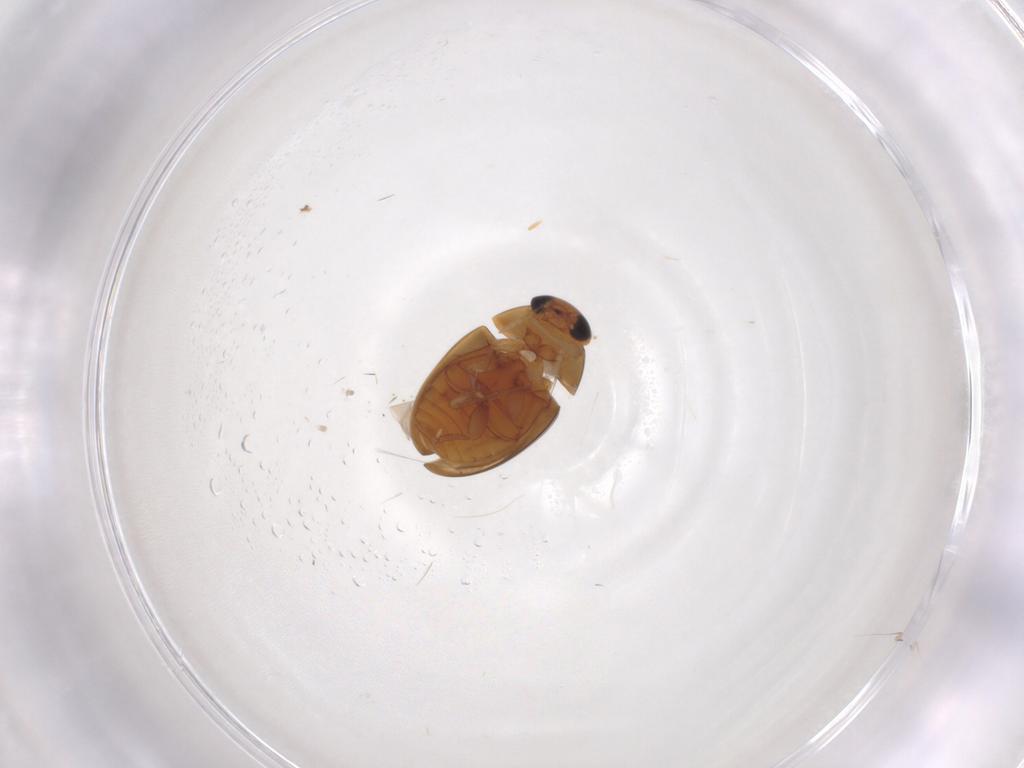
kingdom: Animalia
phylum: Arthropoda
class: Insecta
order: Coleoptera
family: Phalacridae
